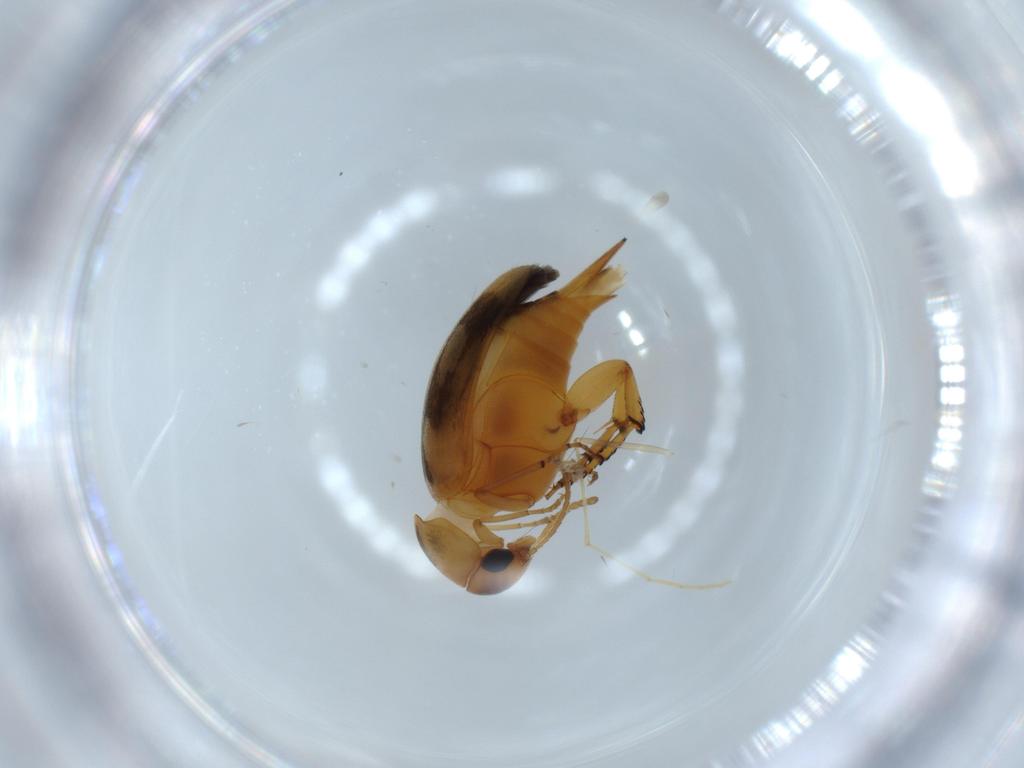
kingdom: Animalia
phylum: Arthropoda
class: Insecta
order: Coleoptera
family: Mordellidae
